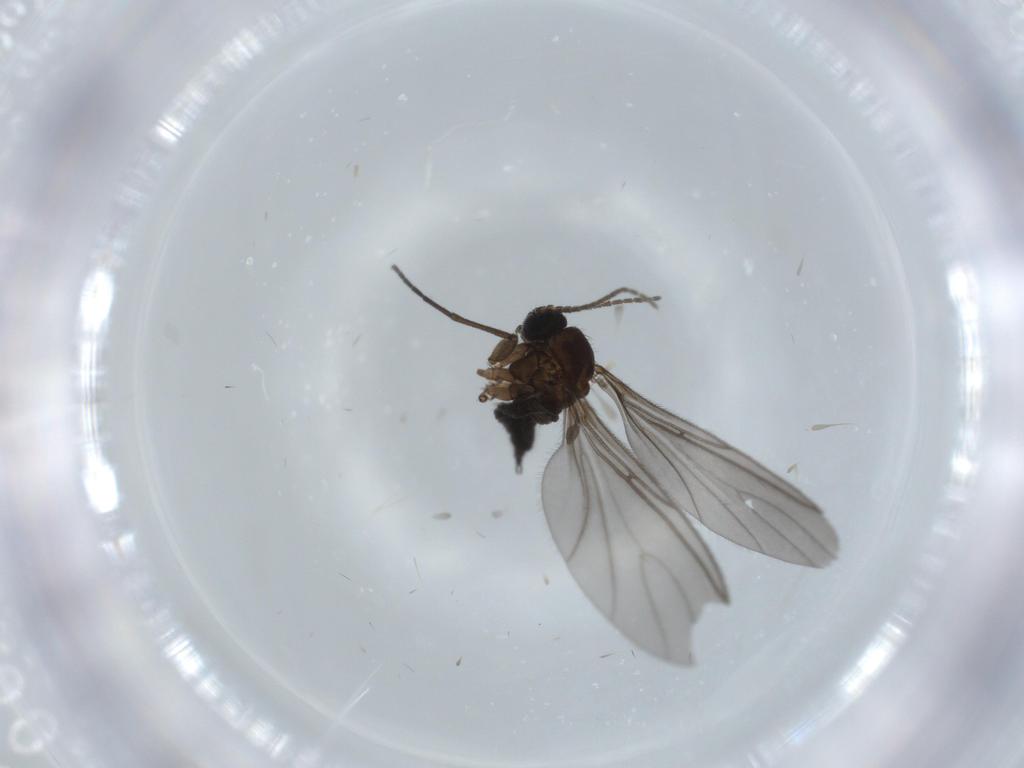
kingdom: Animalia
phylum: Arthropoda
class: Insecta
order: Diptera
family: Sciaridae
